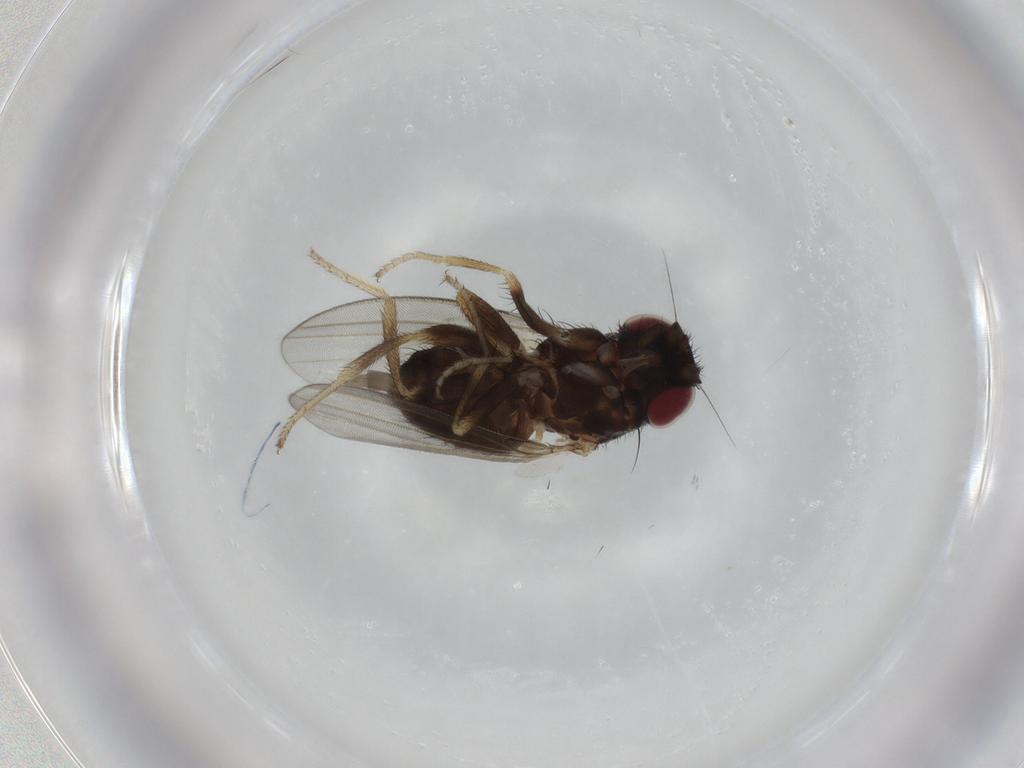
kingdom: Animalia
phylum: Arthropoda
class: Insecta
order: Diptera
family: Milichiidae
